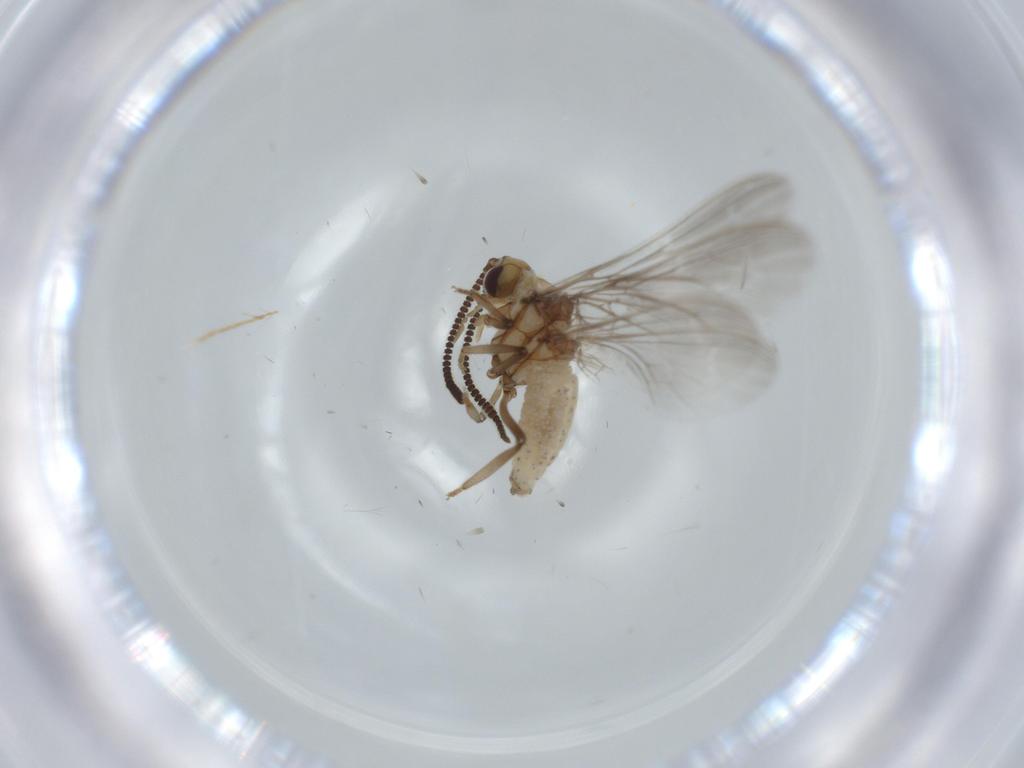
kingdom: Animalia
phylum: Arthropoda
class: Insecta
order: Neuroptera
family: Coniopterygidae
